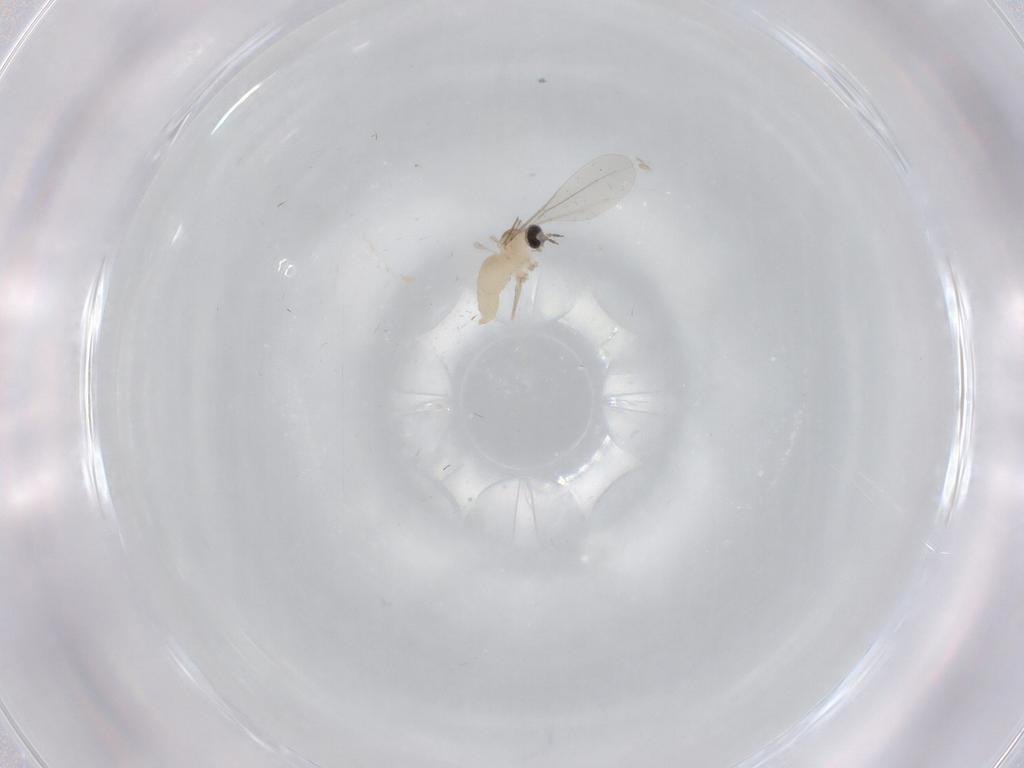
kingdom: Animalia
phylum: Arthropoda
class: Insecta
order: Diptera
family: Cecidomyiidae
